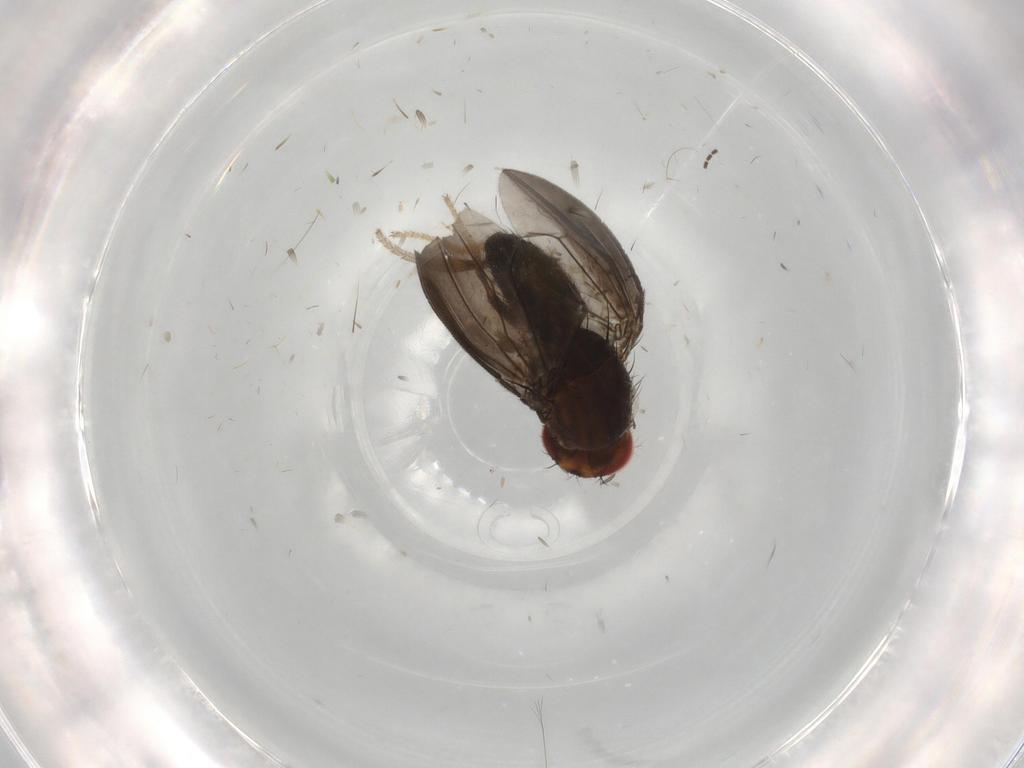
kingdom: Animalia
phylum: Arthropoda
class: Insecta
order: Diptera
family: Drosophilidae
